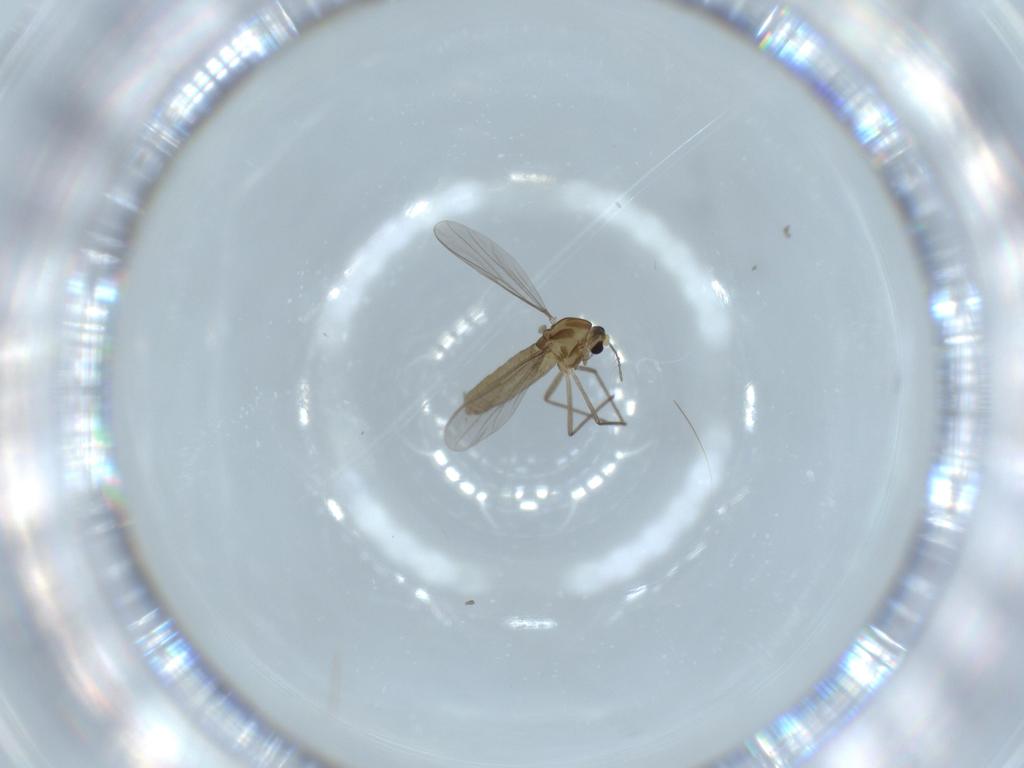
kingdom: Animalia
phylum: Arthropoda
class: Insecta
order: Diptera
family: Chironomidae
